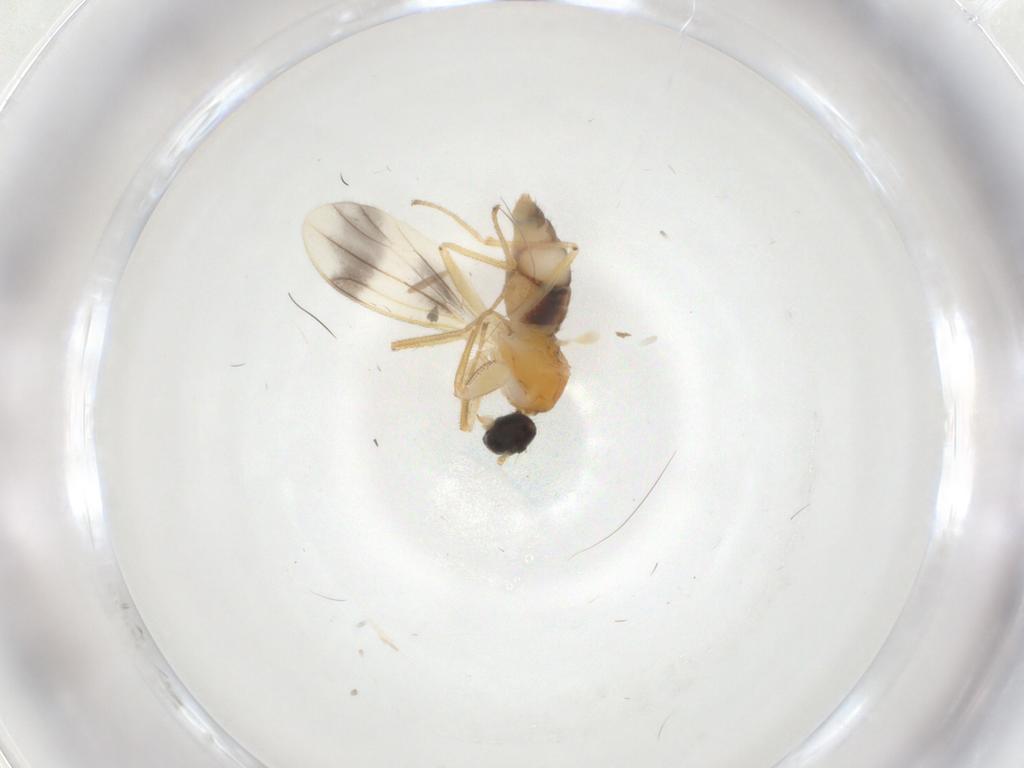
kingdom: Animalia
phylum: Arthropoda
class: Insecta
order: Diptera
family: Empididae
